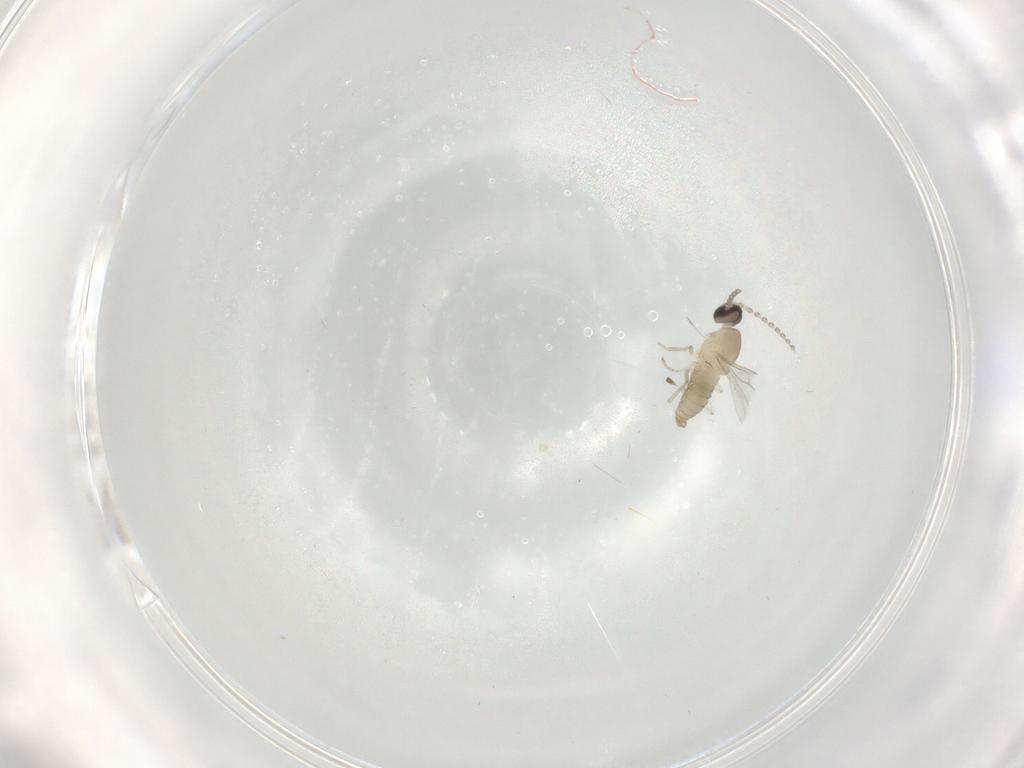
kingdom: Animalia
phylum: Arthropoda
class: Insecta
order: Diptera
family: Cecidomyiidae
